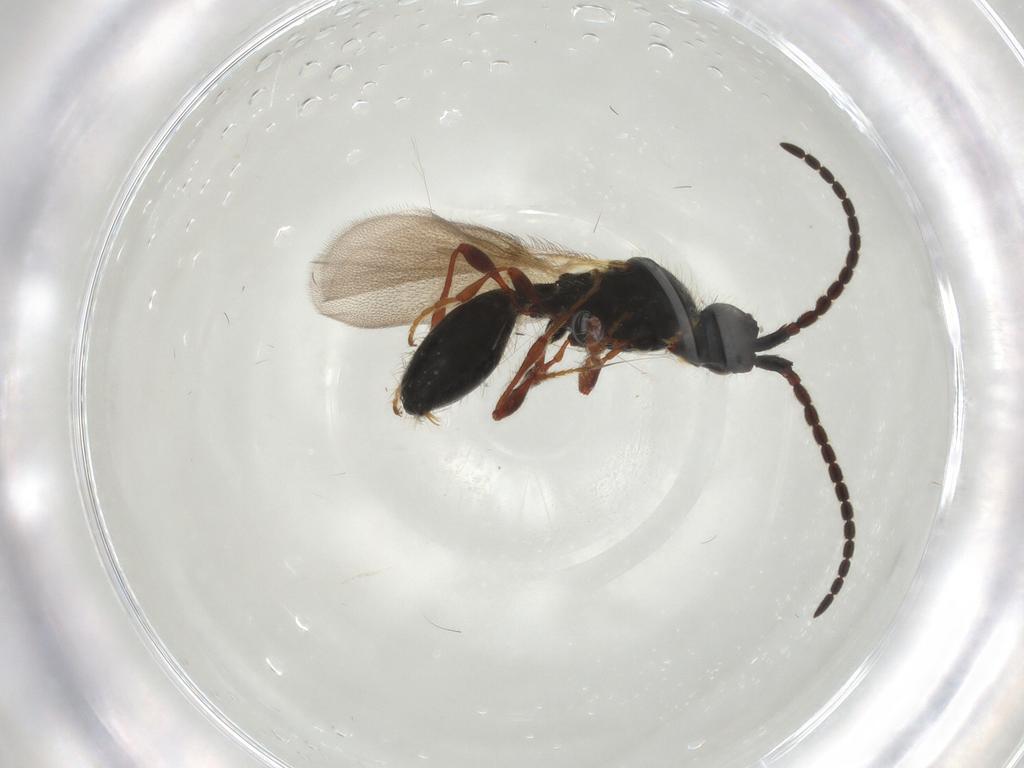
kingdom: Animalia
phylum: Arthropoda
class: Insecta
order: Hymenoptera
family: Diapriidae
